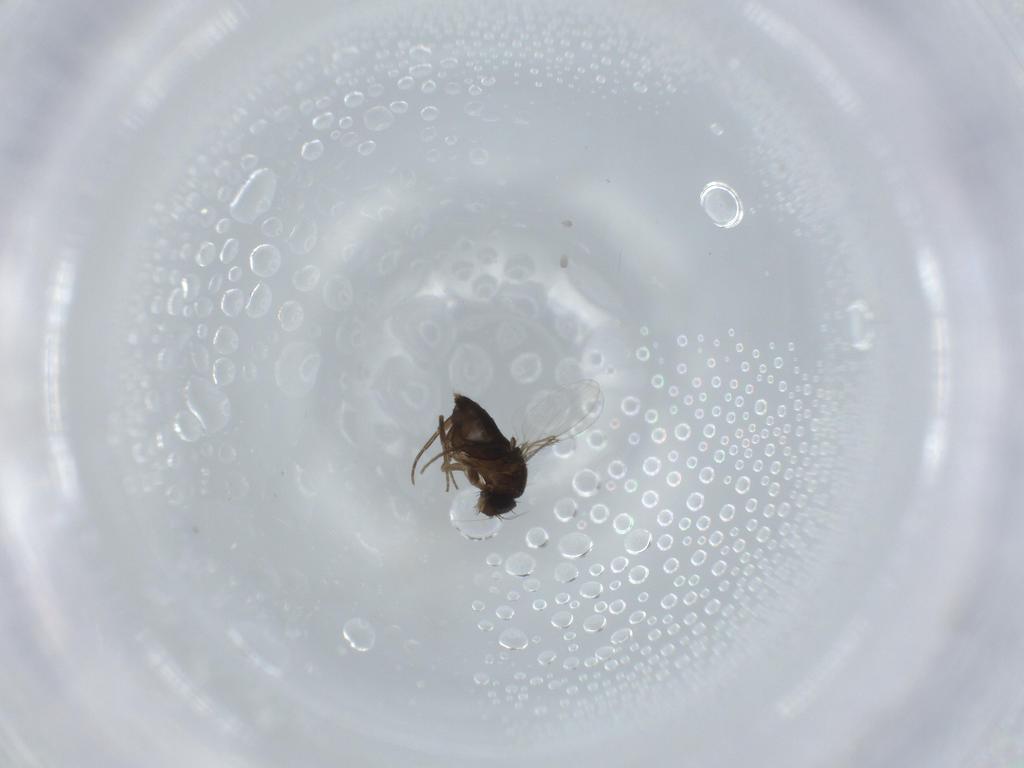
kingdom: Animalia
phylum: Arthropoda
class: Insecta
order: Diptera
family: Phoridae
